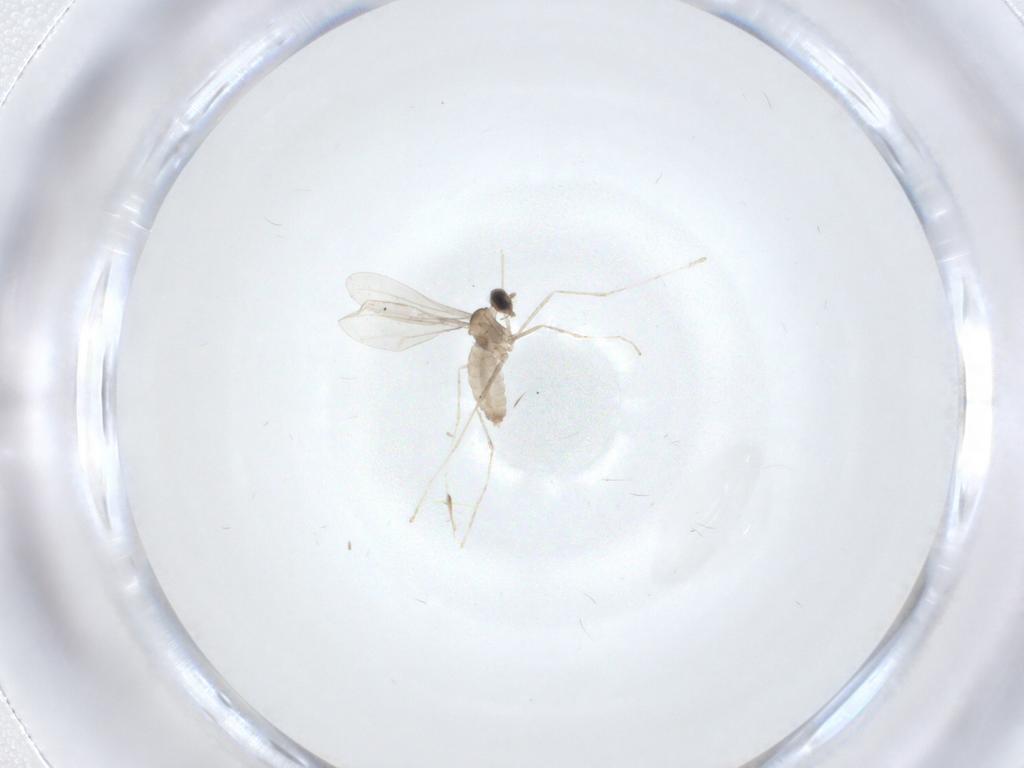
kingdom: Animalia
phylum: Arthropoda
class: Insecta
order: Diptera
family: Cecidomyiidae
